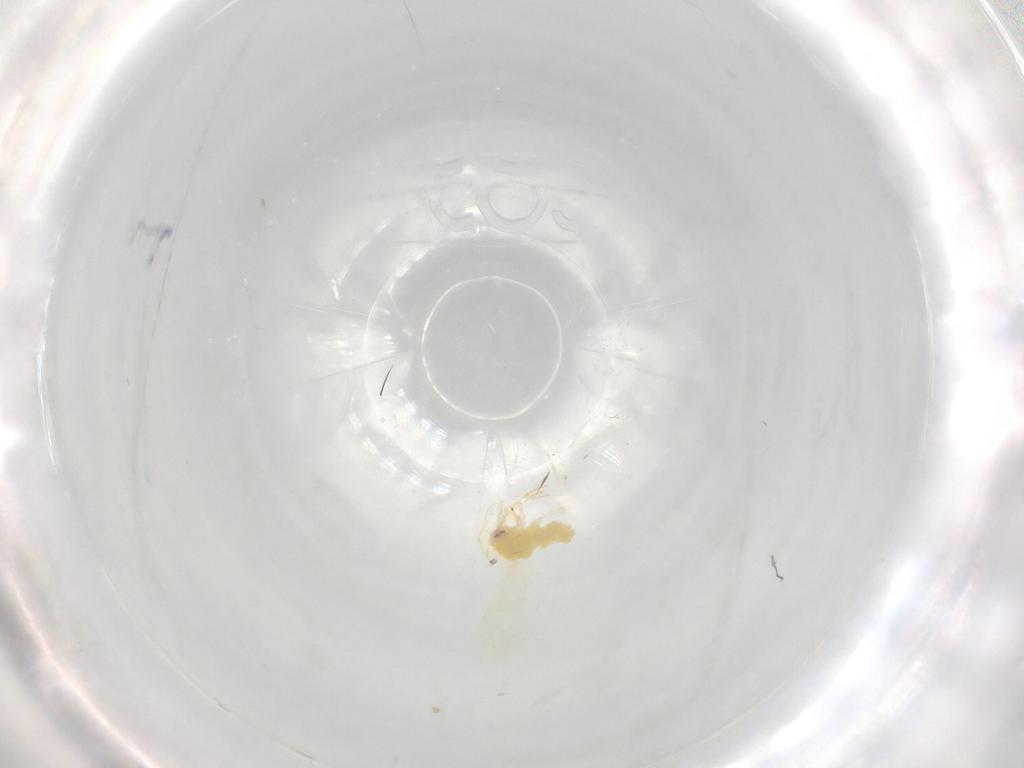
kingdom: Animalia
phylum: Arthropoda
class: Insecta
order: Hemiptera
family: Aleyrodidae
